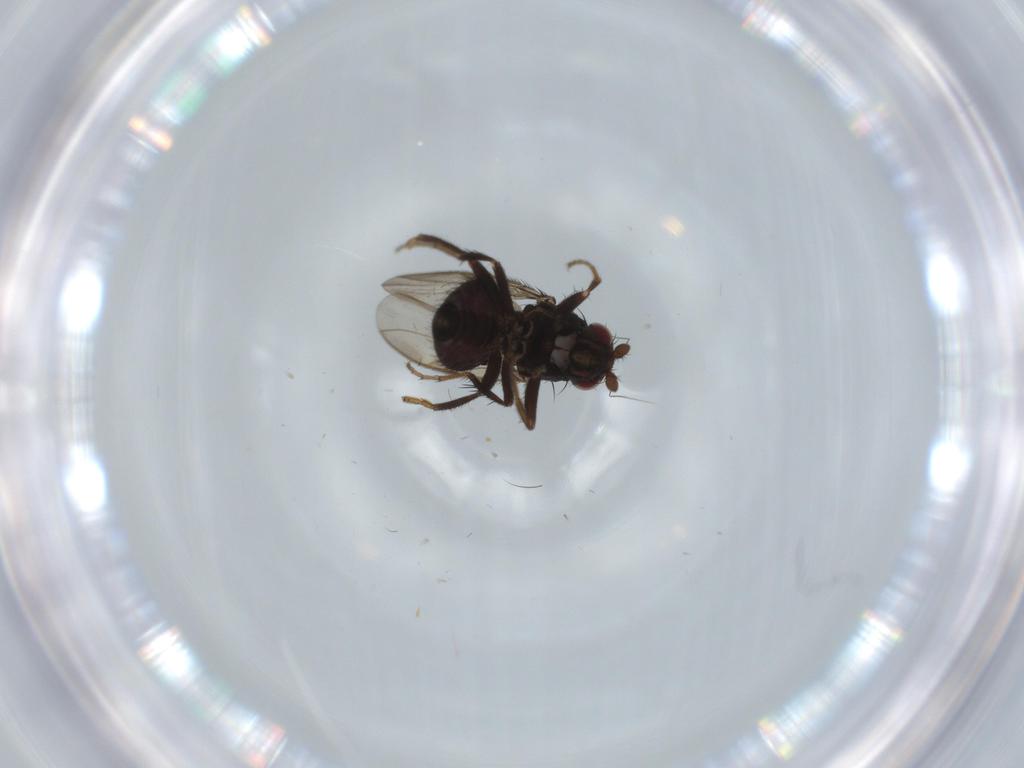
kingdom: Animalia
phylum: Arthropoda
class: Insecta
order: Diptera
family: Sphaeroceridae
